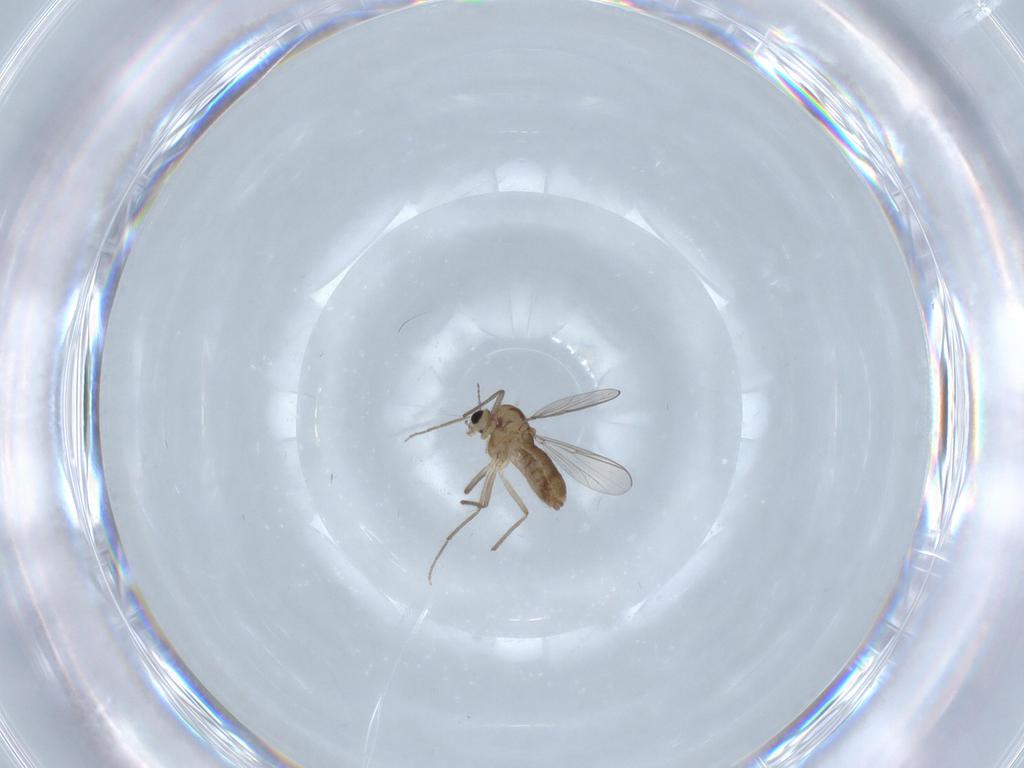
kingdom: Animalia
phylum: Arthropoda
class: Insecta
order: Diptera
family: Chironomidae
